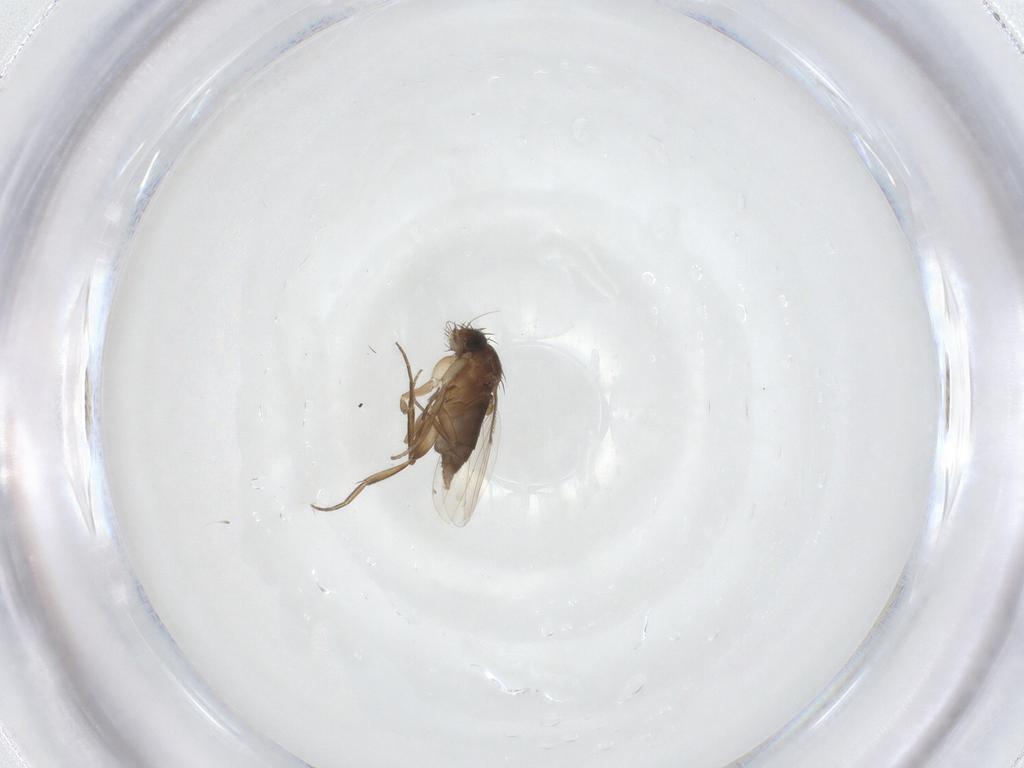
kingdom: Animalia
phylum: Arthropoda
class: Insecta
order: Diptera
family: Phoridae
